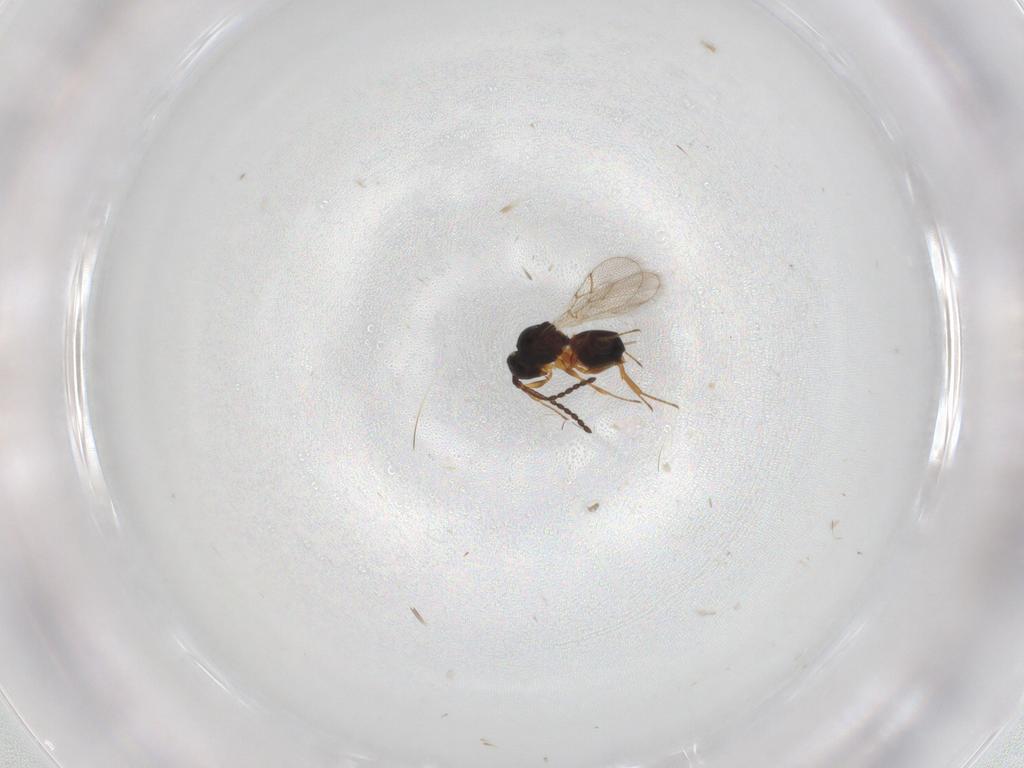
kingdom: Animalia
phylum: Arthropoda
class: Insecta
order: Hymenoptera
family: Figitidae
